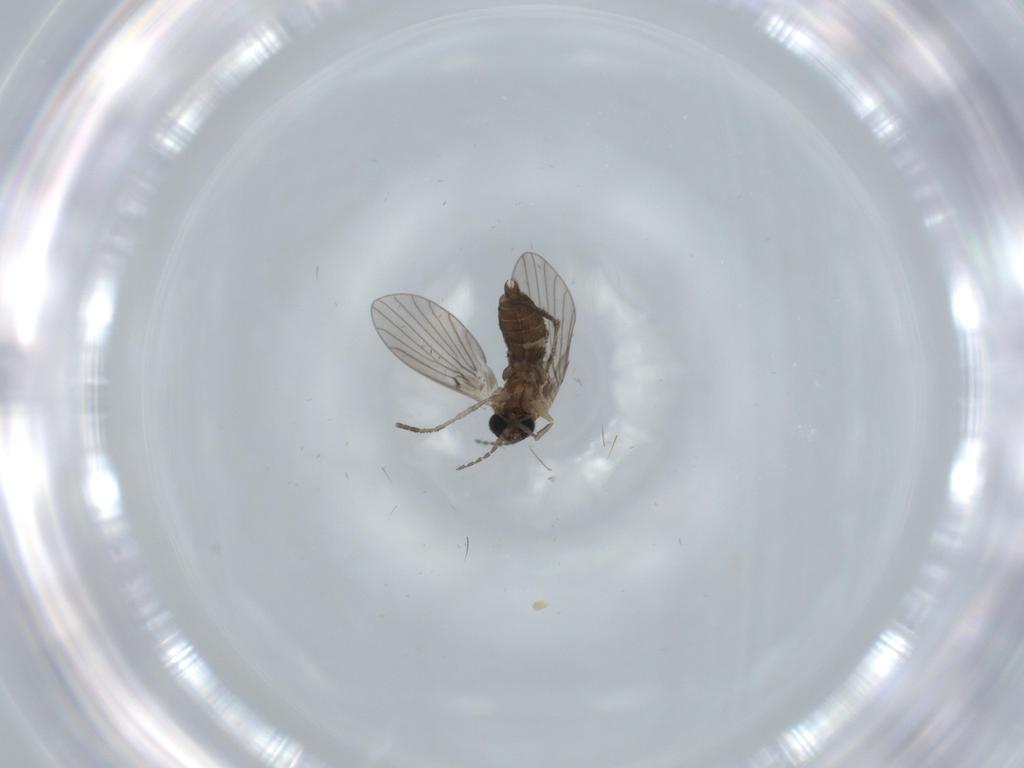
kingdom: Animalia
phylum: Arthropoda
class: Insecta
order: Diptera
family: Psychodidae
